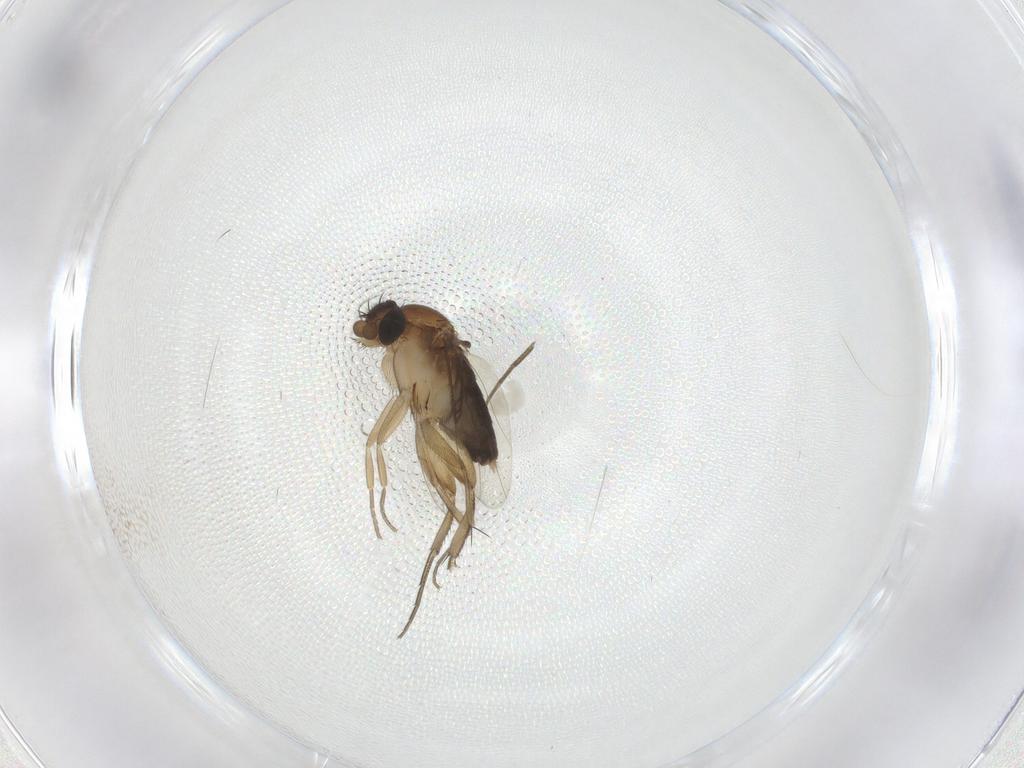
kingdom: Animalia
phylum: Arthropoda
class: Insecta
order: Diptera
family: Phoridae
